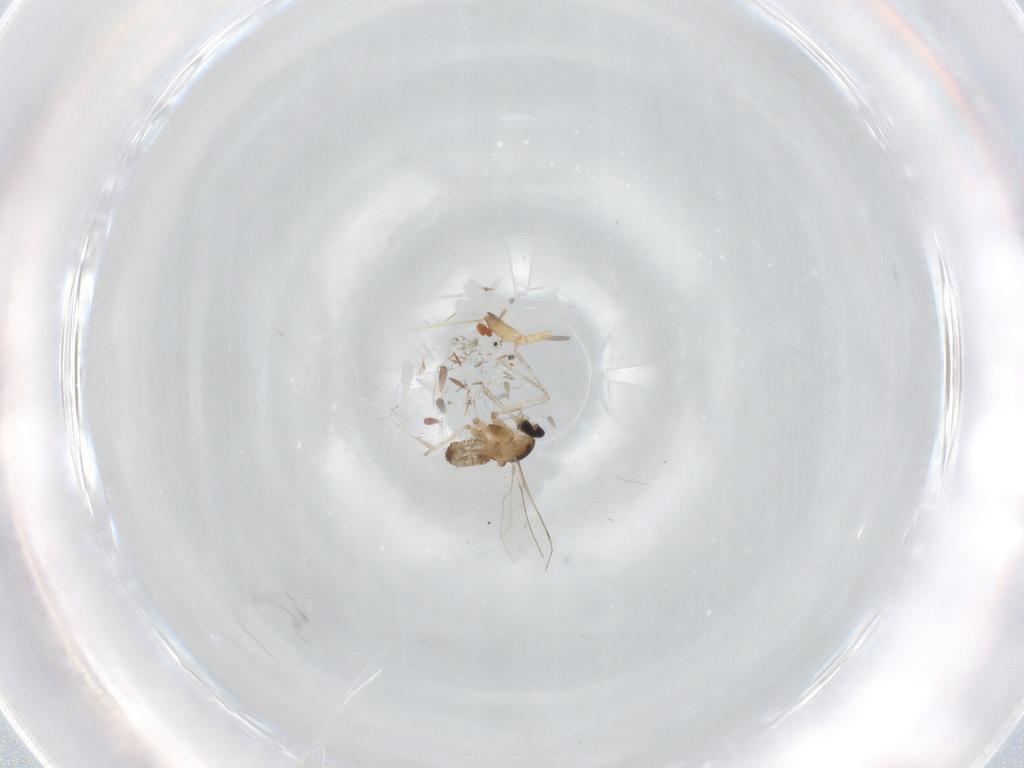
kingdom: Animalia
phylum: Arthropoda
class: Insecta
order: Diptera
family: Cecidomyiidae
